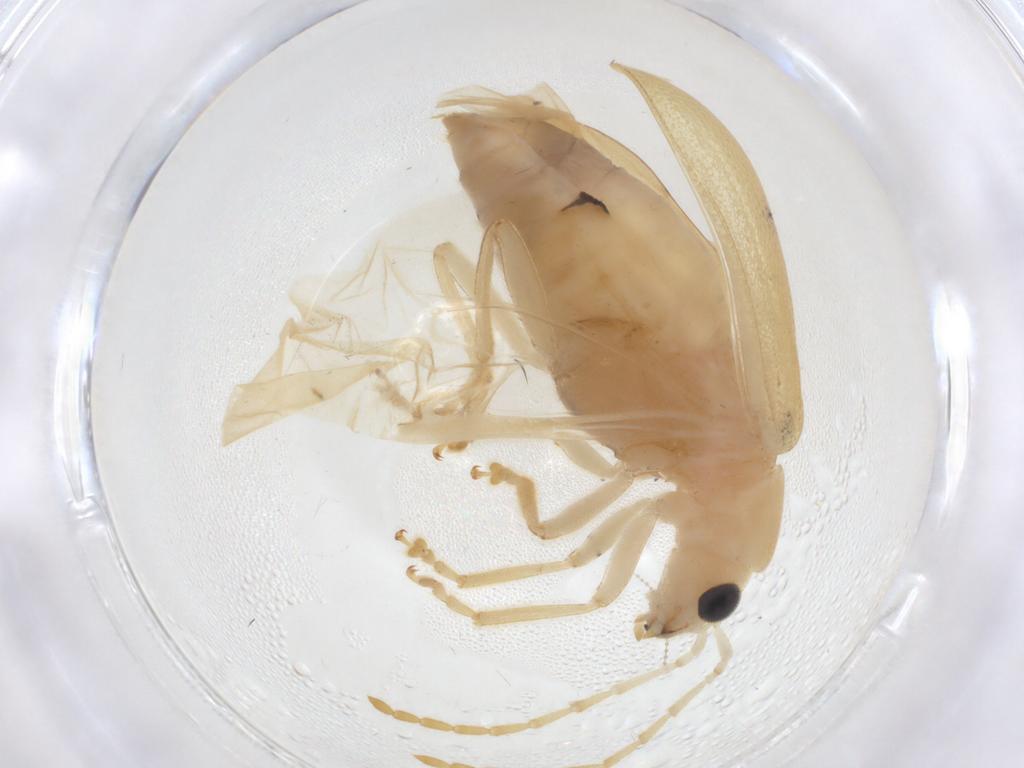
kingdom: Animalia
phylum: Arthropoda
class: Insecta
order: Coleoptera
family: Chrysomelidae
